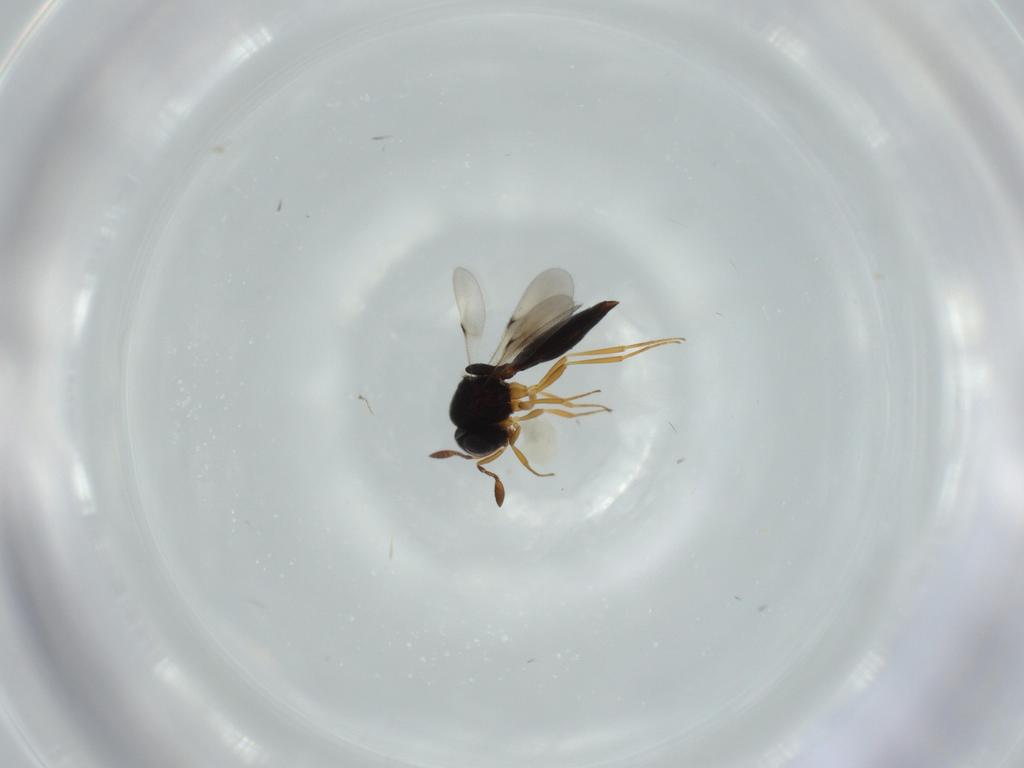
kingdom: Animalia
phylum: Arthropoda
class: Insecta
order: Hymenoptera
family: Scelionidae
